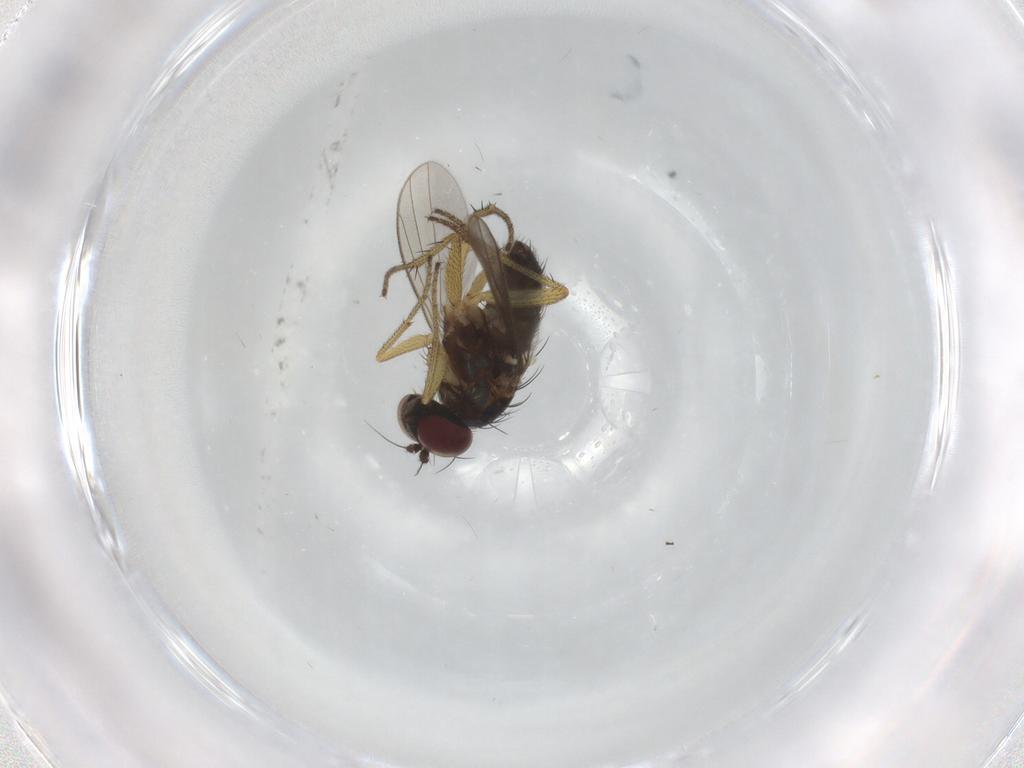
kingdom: Animalia
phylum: Arthropoda
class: Insecta
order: Diptera
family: Dolichopodidae
